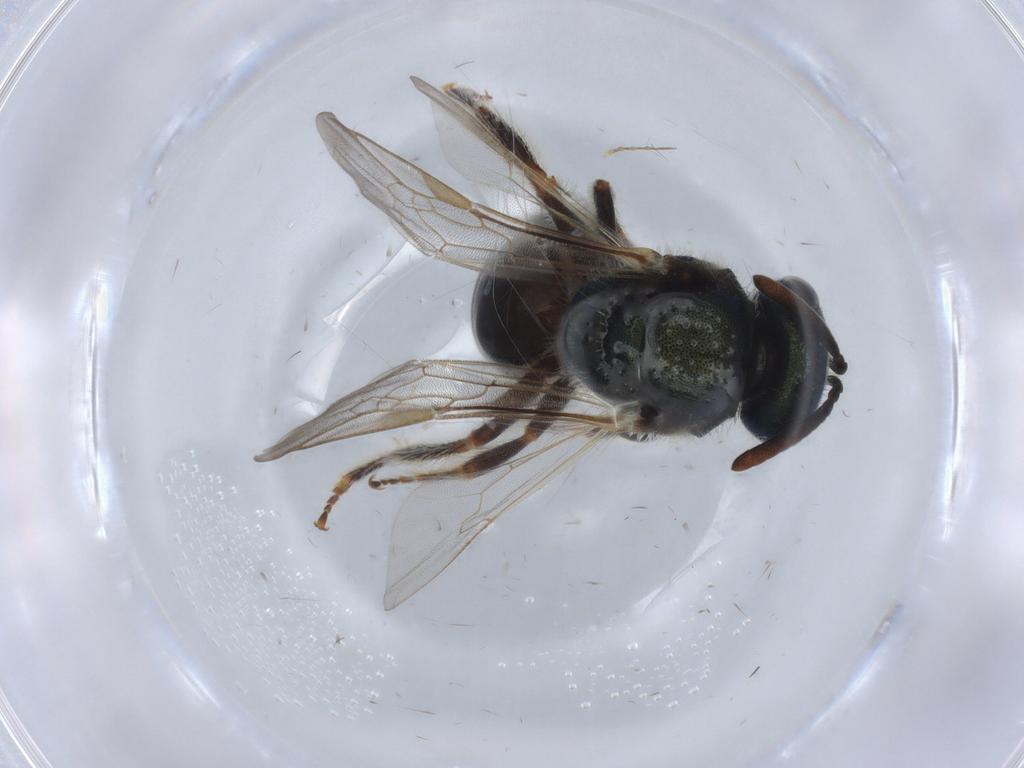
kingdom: Animalia
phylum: Arthropoda
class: Insecta
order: Hymenoptera
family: Halictidae
